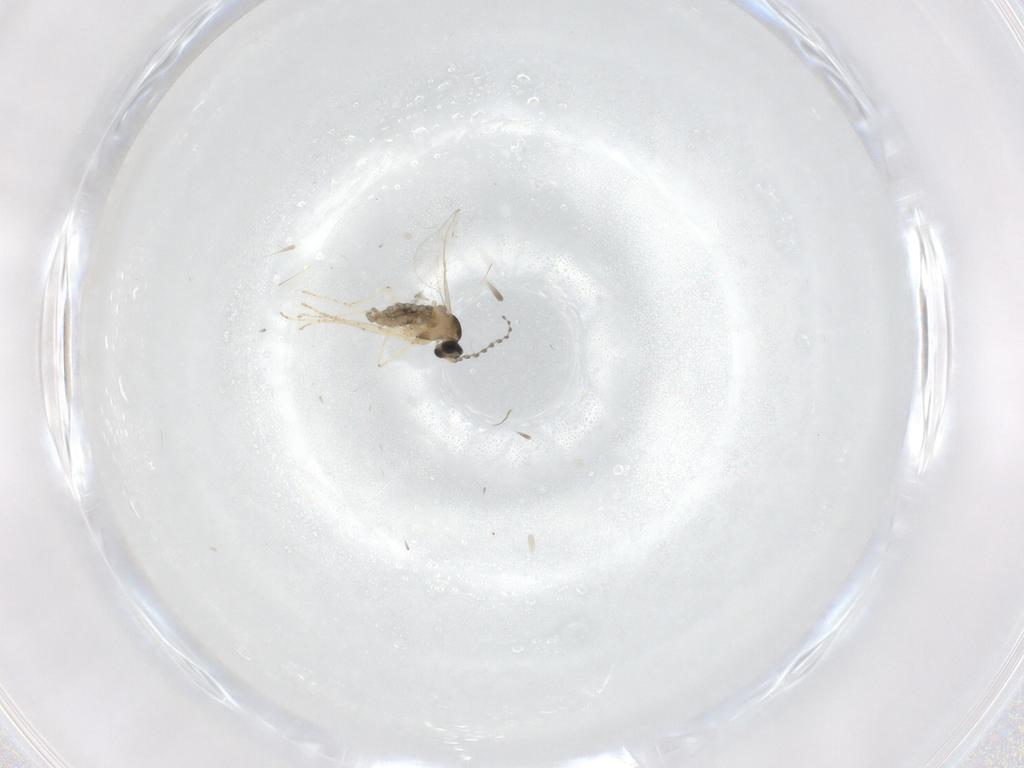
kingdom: Animalia
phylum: Arthropoda
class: Insecta
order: Diptera
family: Cecidomyiidae
